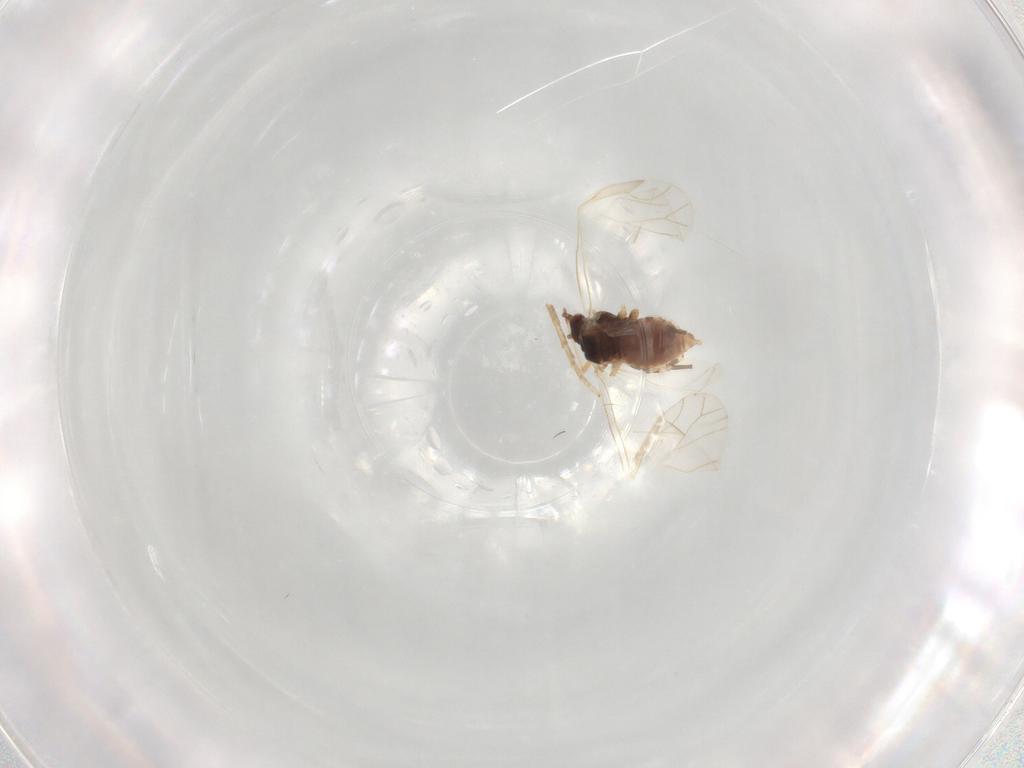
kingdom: Animalia
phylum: Arthropoda
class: Insecta
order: Hemiptera
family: Aphididae
